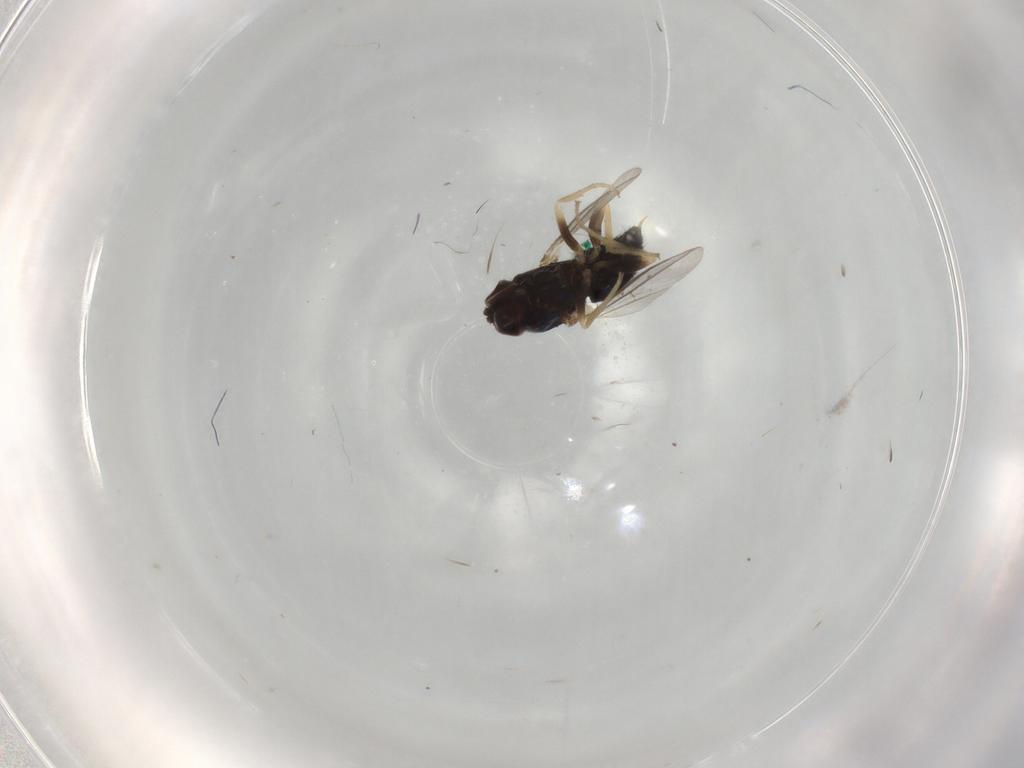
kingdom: Animalia
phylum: Arthropoda
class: Insecta
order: Diptera
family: Dolichopodidae
